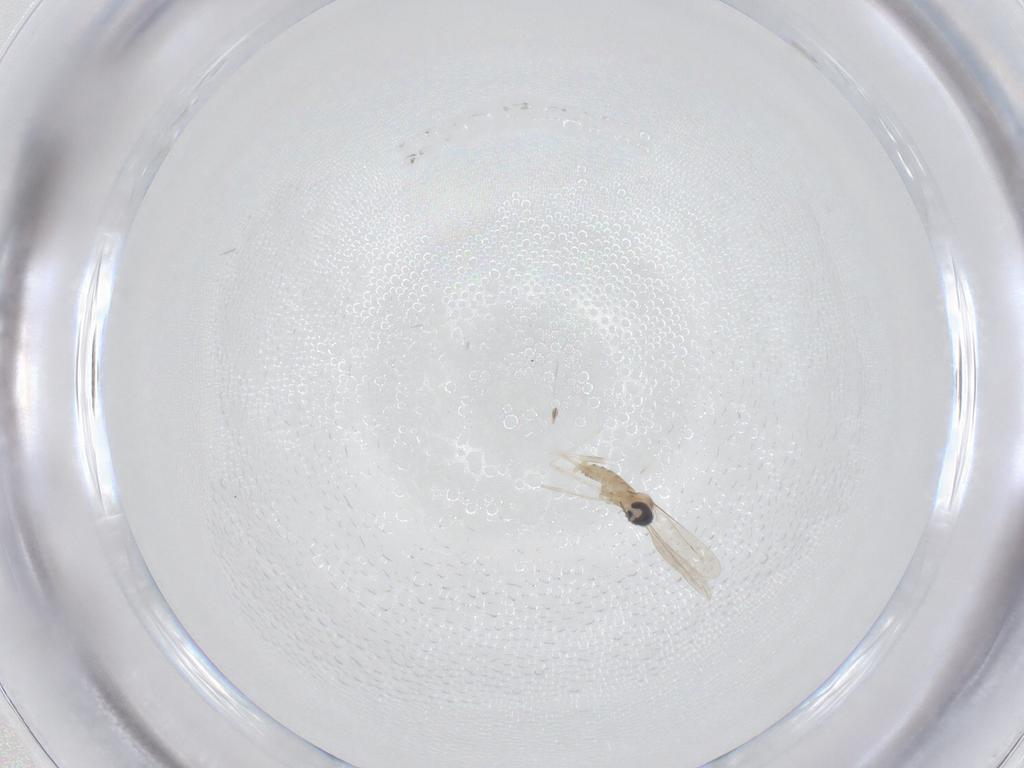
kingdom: Animalia
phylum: Arthropoda
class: Insecta
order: Diptera
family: Cecidomyiidae
